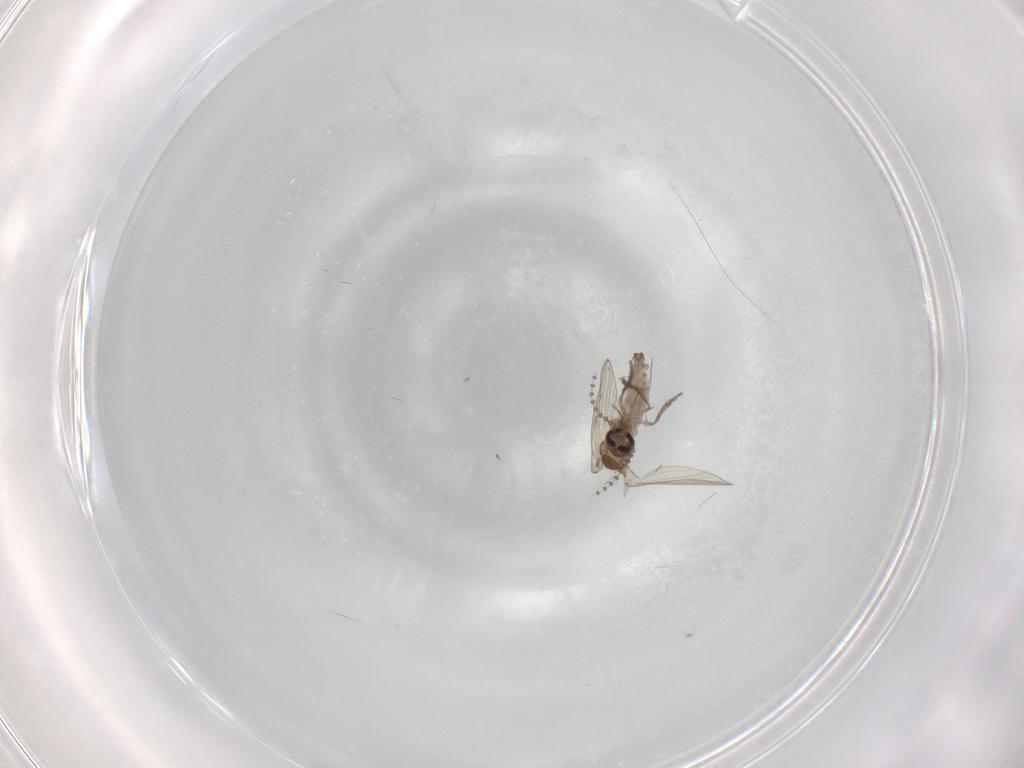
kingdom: Animalia
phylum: Arthropoda
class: Insecta
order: Diptera
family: Psychodidae
